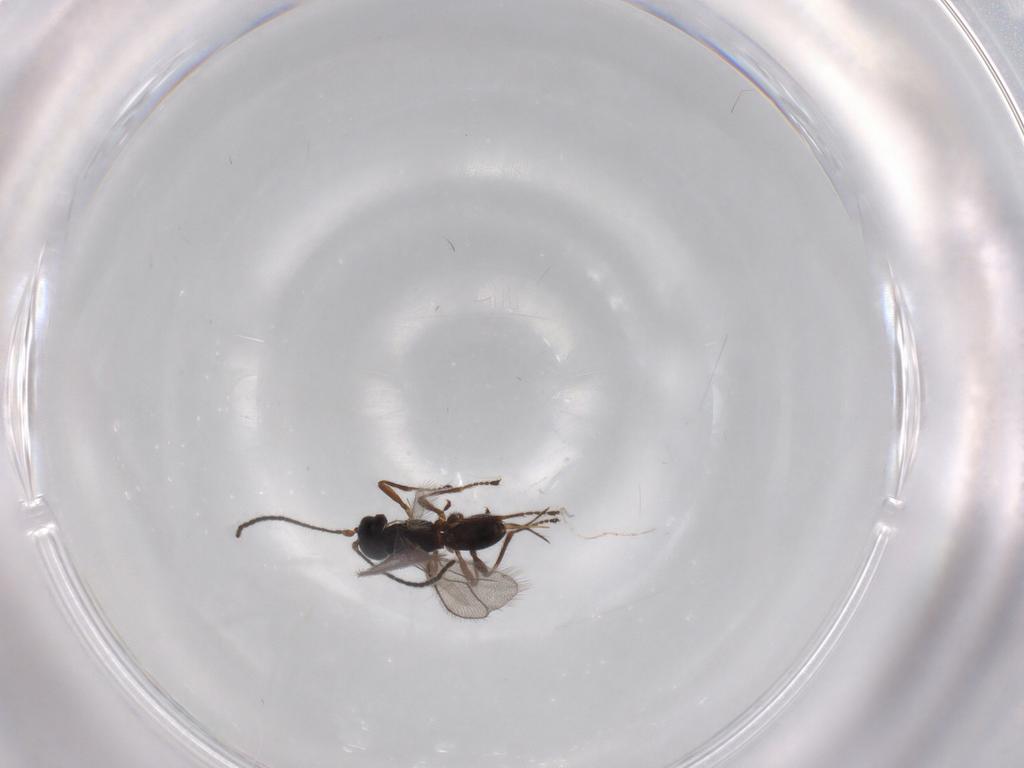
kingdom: Animalia
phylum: Arthropoda
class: Insecta
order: Hymenoptera
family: Braconidae
